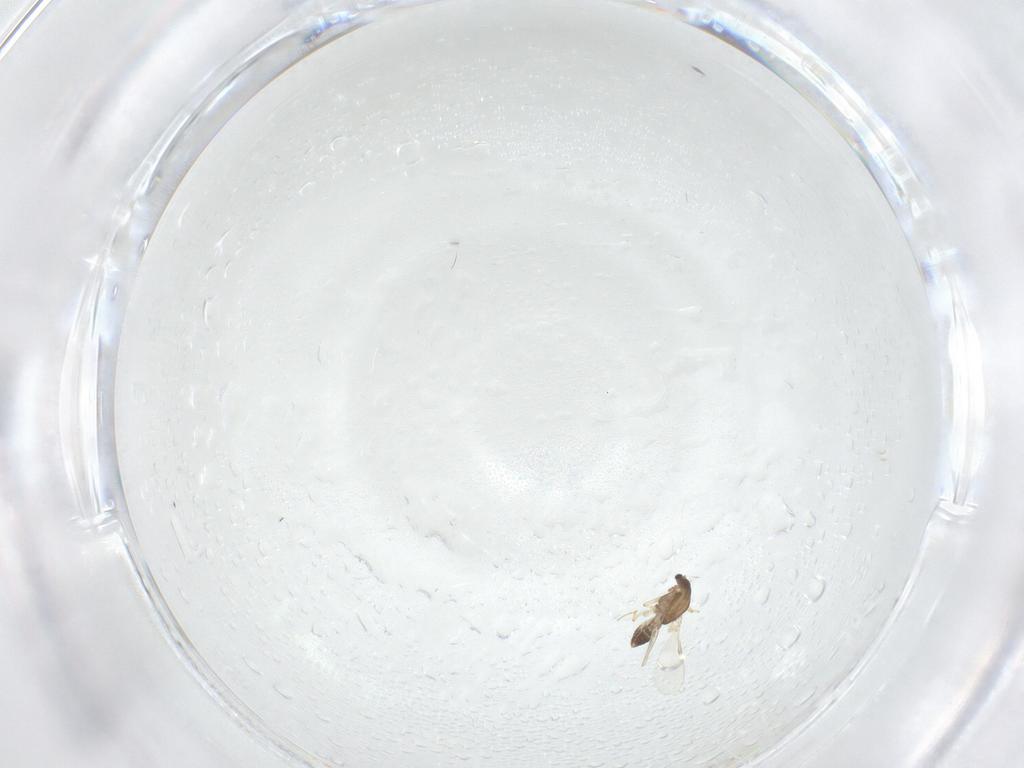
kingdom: Animalia
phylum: Arthropoda
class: Insecta
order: Diptera
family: Chironomidae
